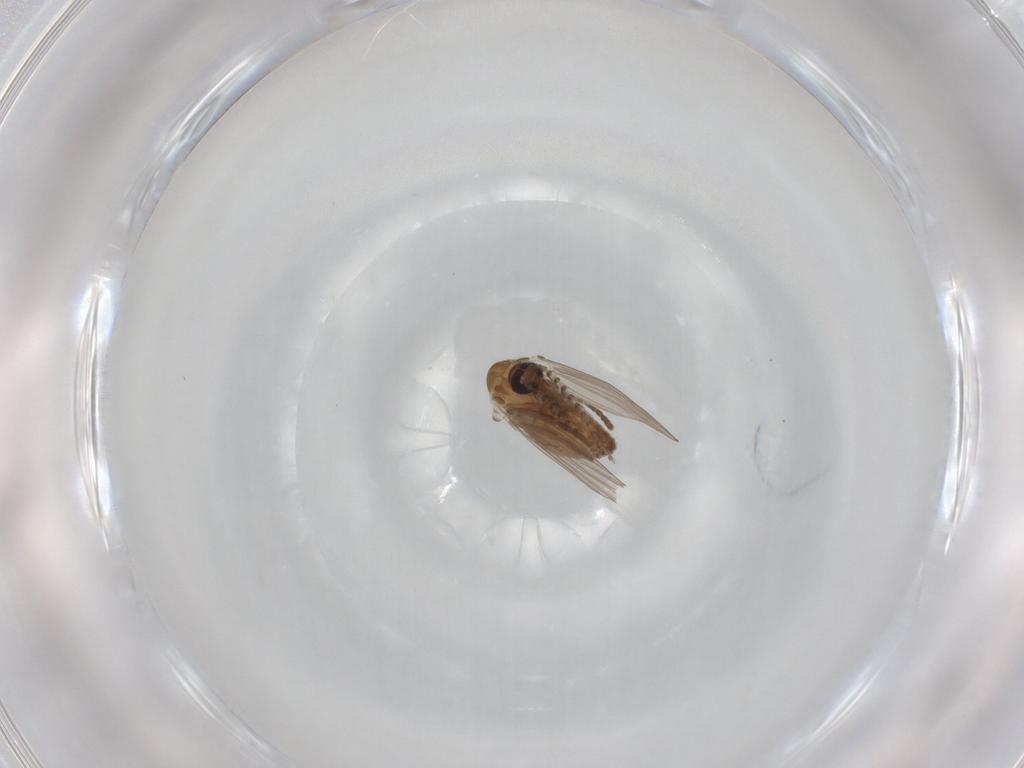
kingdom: Animalia
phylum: Arthropoda
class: Insecta
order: Diptera
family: Psychodidae
